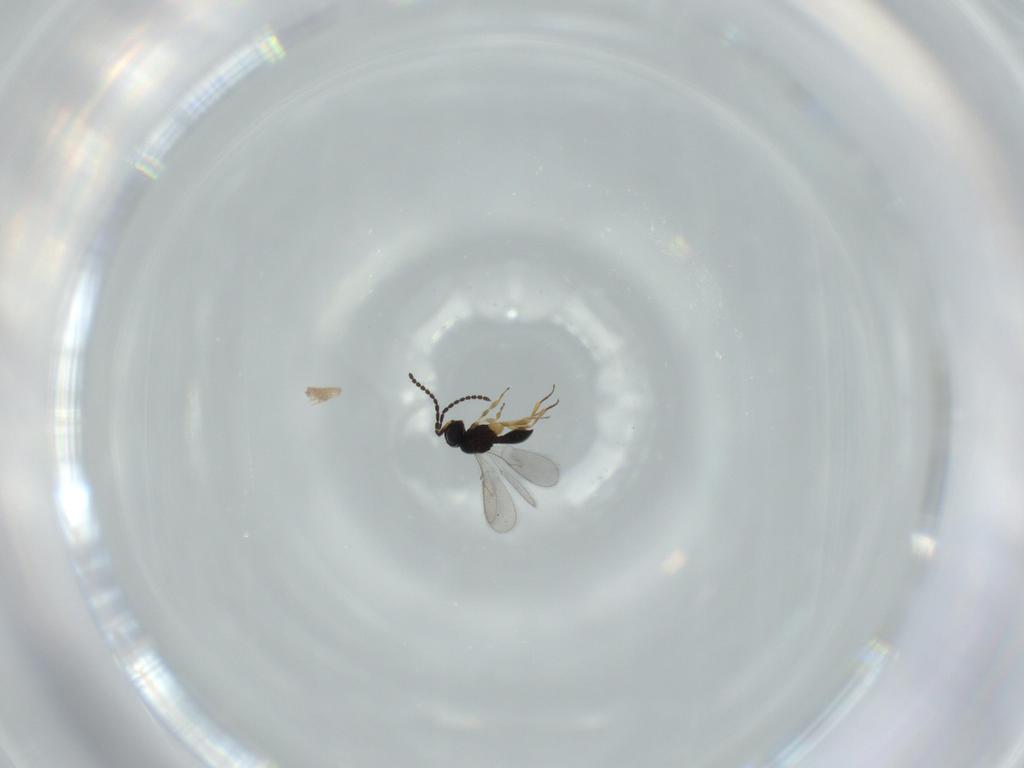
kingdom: Animalia
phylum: Arthropoda
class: Insecta
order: Hymenoptera
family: Scelionidae
